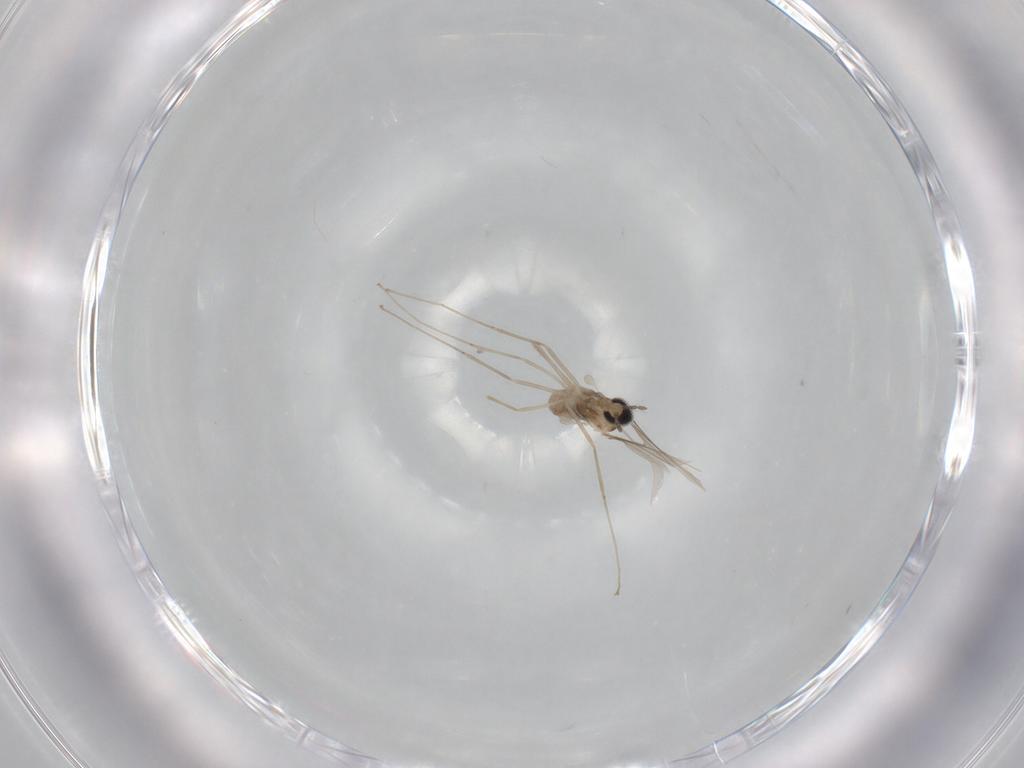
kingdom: Animalia
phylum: Arthropoda
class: Insecta
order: Diptera
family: Cecidomyiidae
